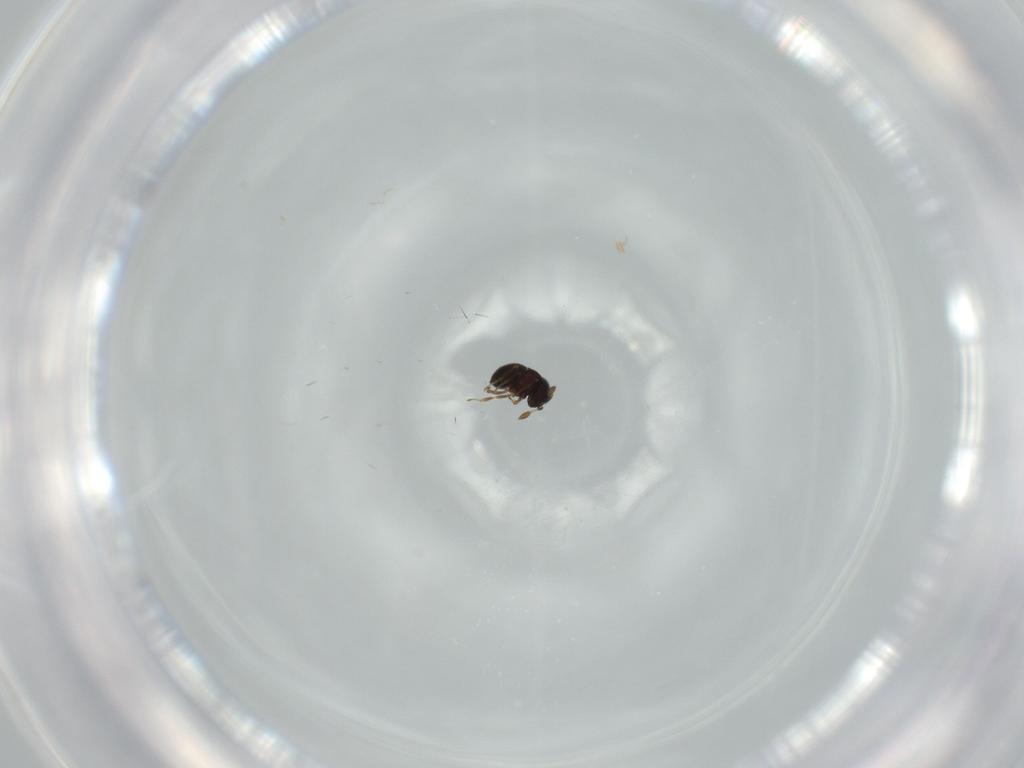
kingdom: Animalia
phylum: Arthropoda
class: Insecta
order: Hymenoptera
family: Scelionidae
